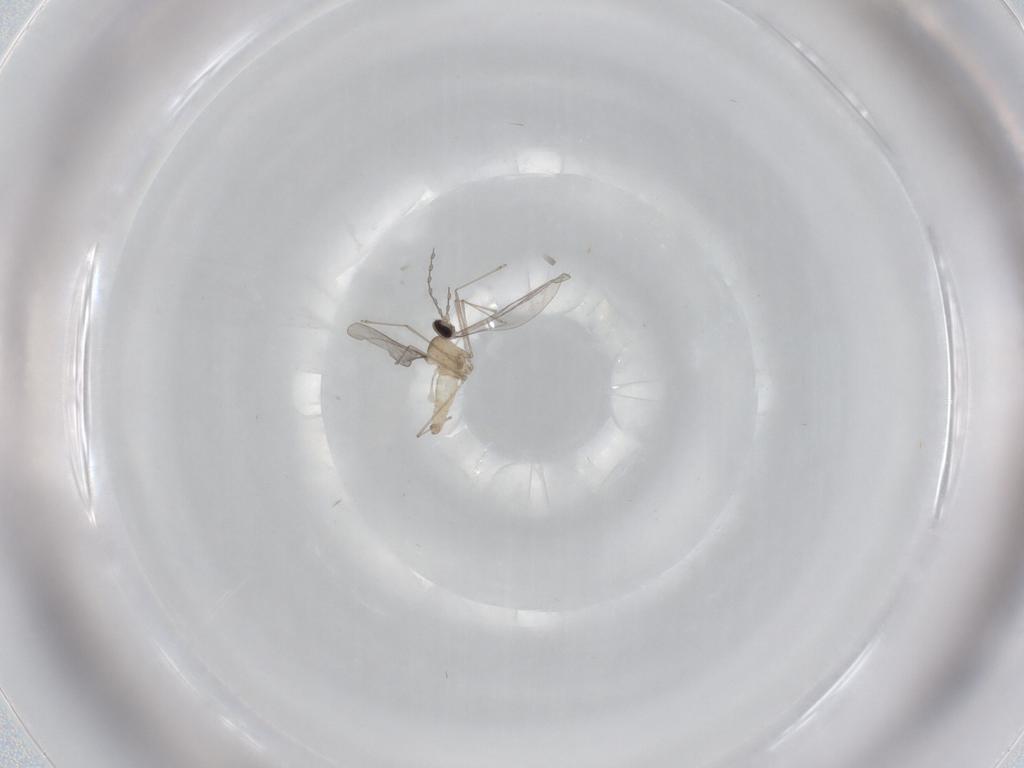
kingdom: Animalia
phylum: Arthropoda
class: Insecta
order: Diptera
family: Cecidomyiidae
